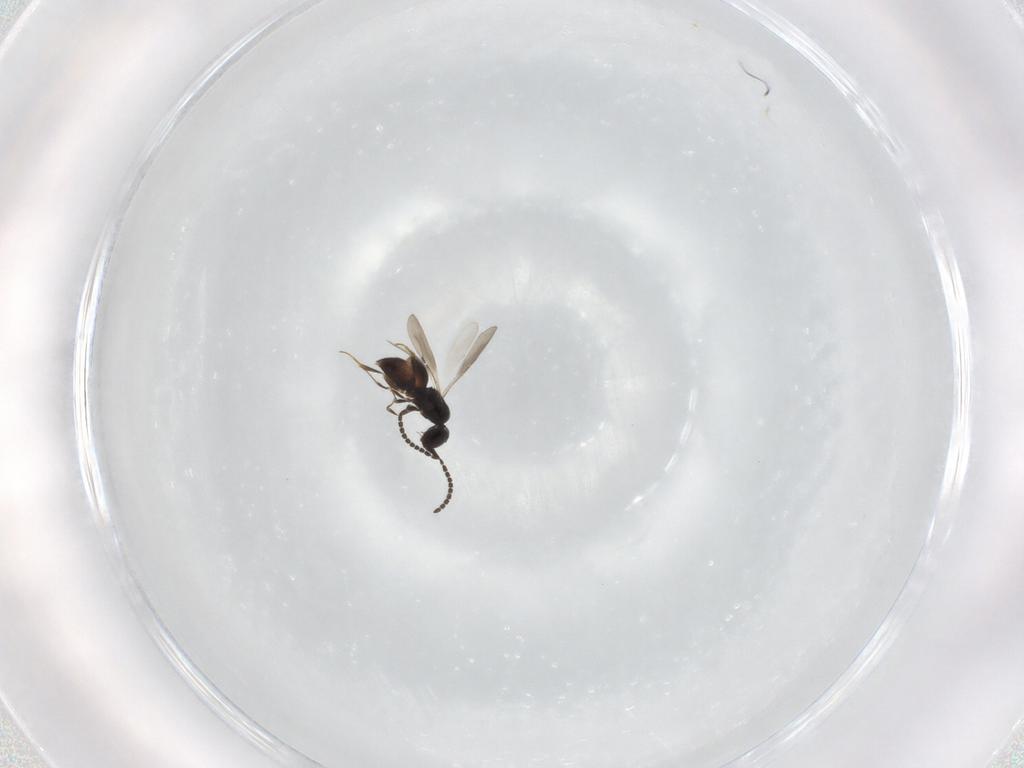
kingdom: Animalia
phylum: Arthropoda
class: Insecta
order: Hymenoptera
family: Ceraphronidae
